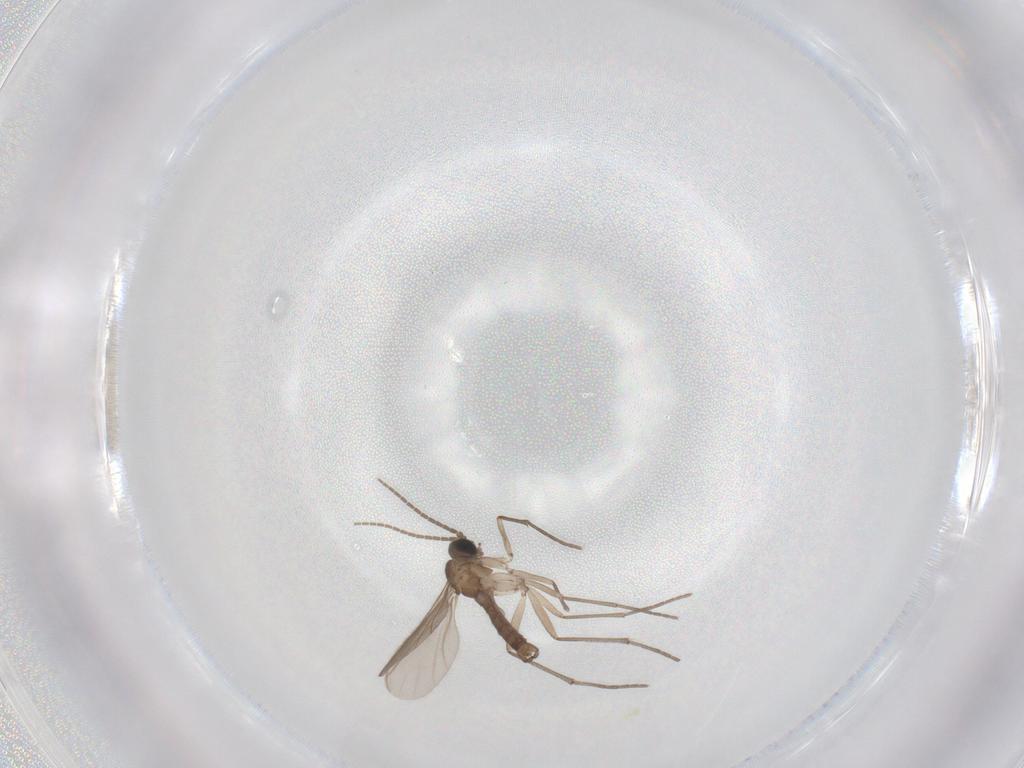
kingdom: Animalia
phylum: Arthropoda
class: Insecta
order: Diptera
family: Sciaridae
